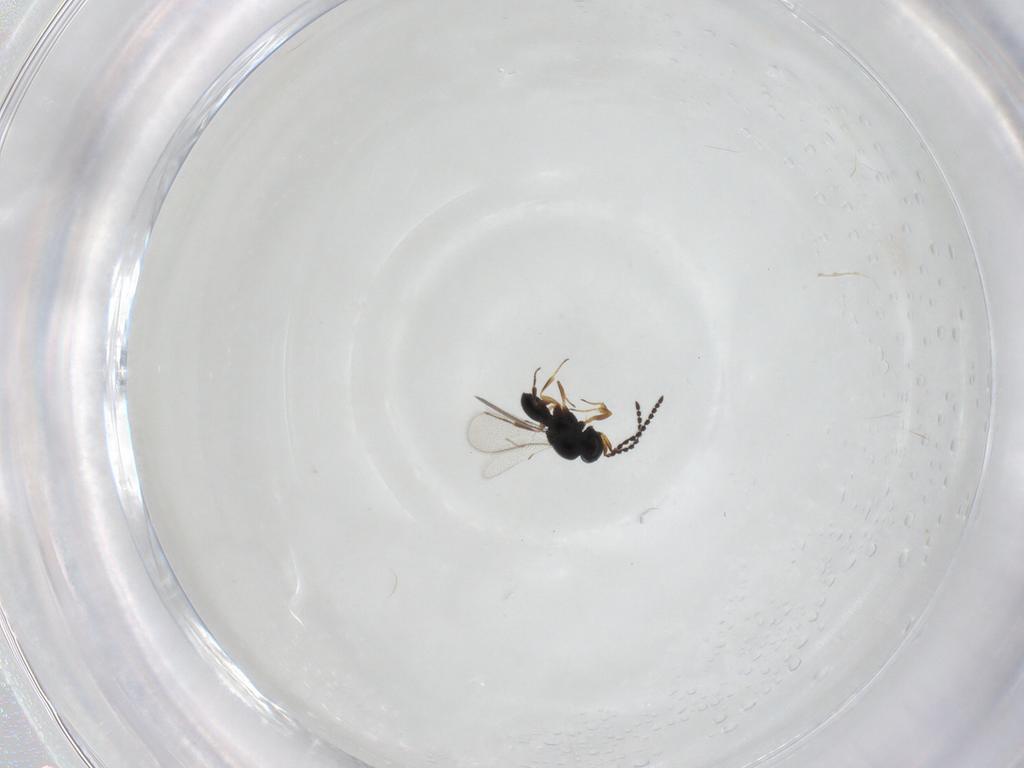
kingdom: Animalia
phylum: Arthropoda
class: Insecta
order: Hymenoptera
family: Scelionidae
